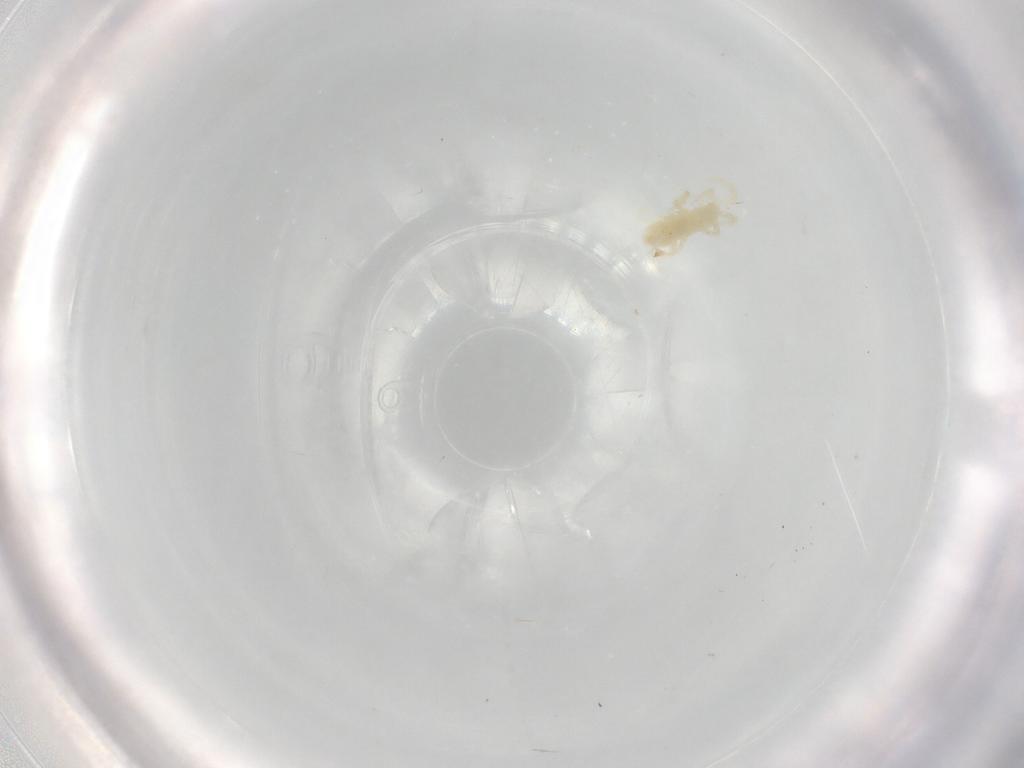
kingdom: Animalia
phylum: Arthropoda
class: Arachnida
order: Trombidiformes
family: Rhagidiidae
